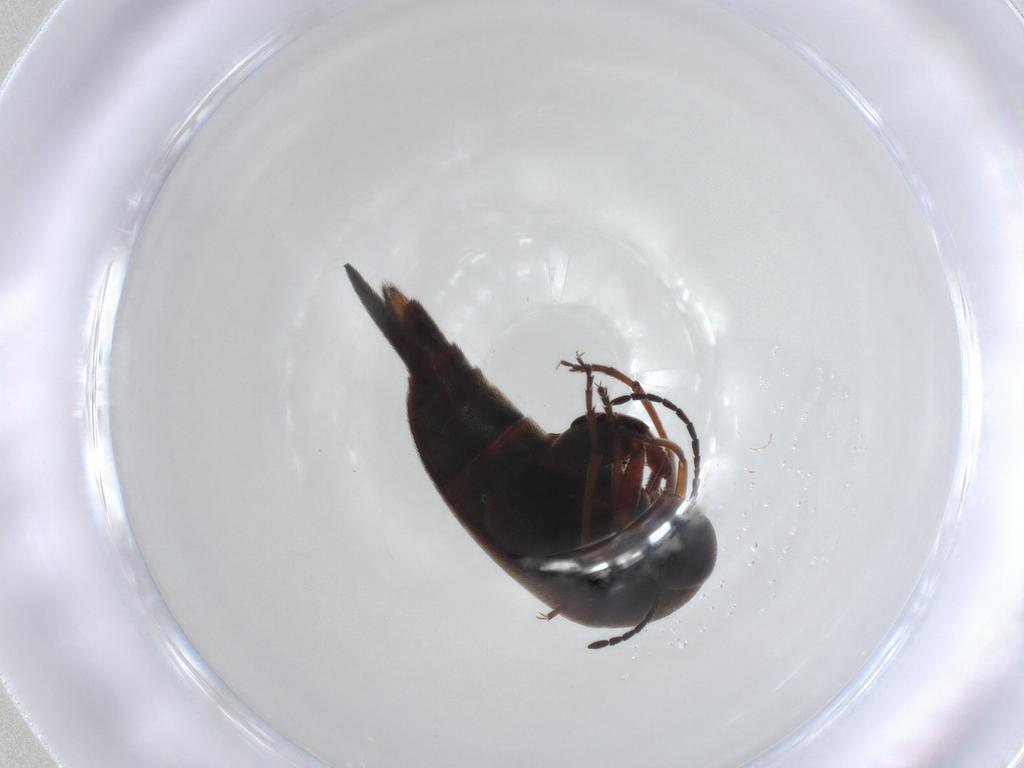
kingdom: Animalia
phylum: Arthropoda
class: Insecta
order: Coleoptera
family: Mordellidae
